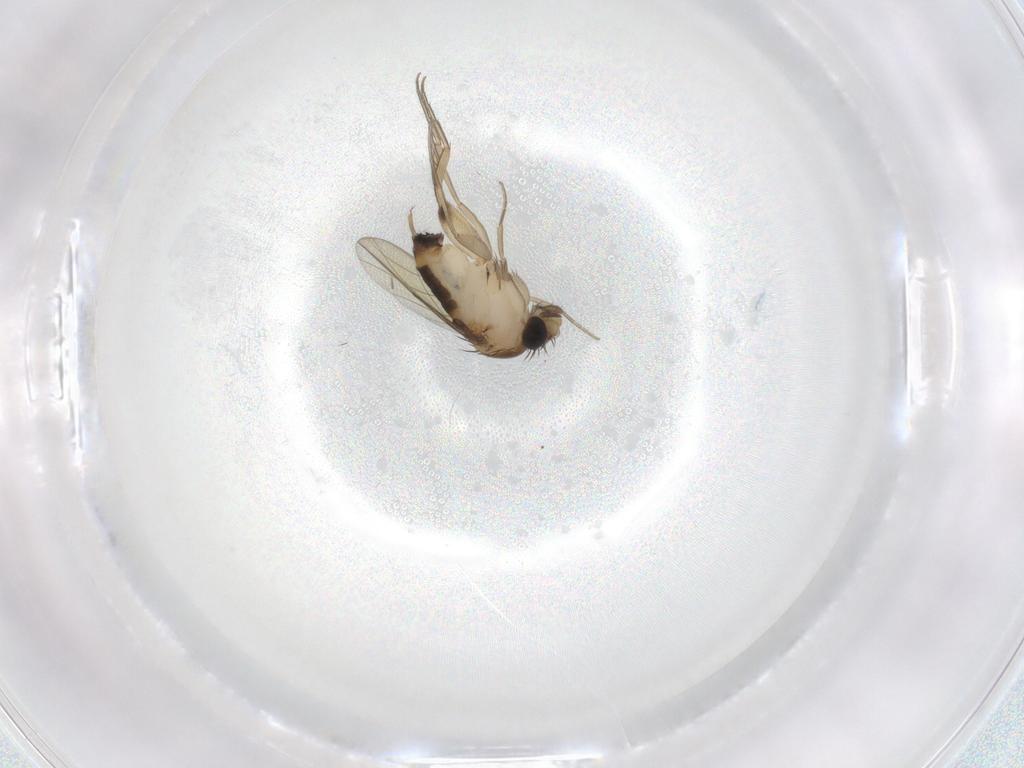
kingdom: Animalia
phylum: Arthropoda
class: Insecta
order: Diptera
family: Phoridae
